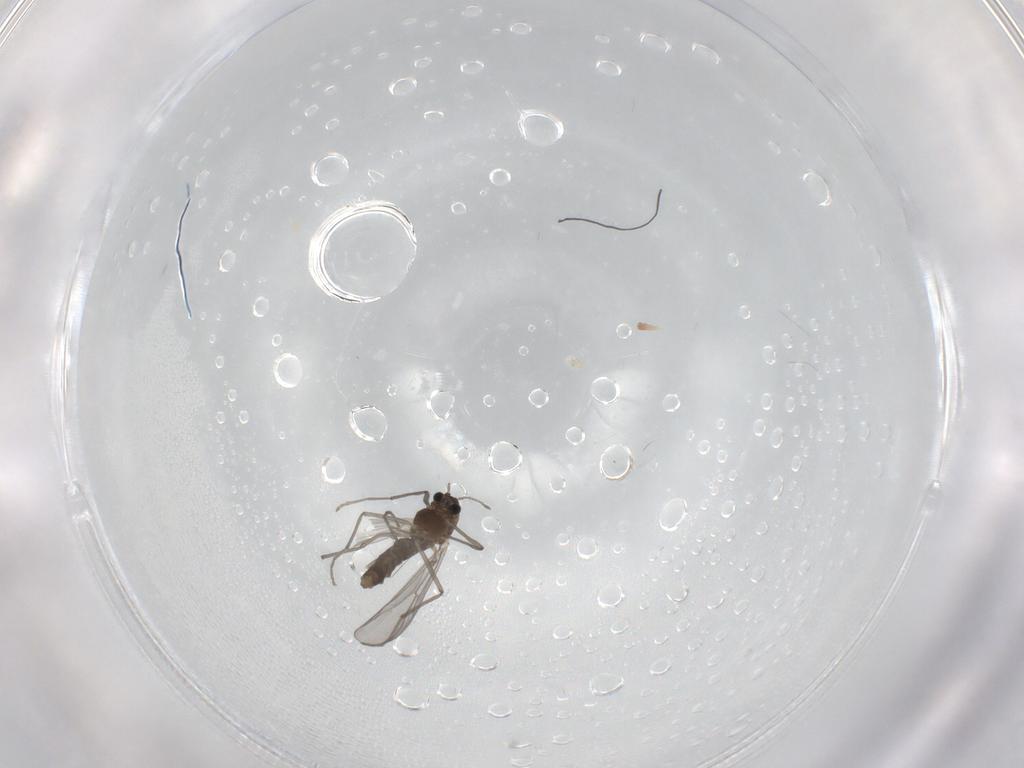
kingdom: Animalia
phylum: Arthropoda
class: Insecta
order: Diptera
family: Chironomidae
